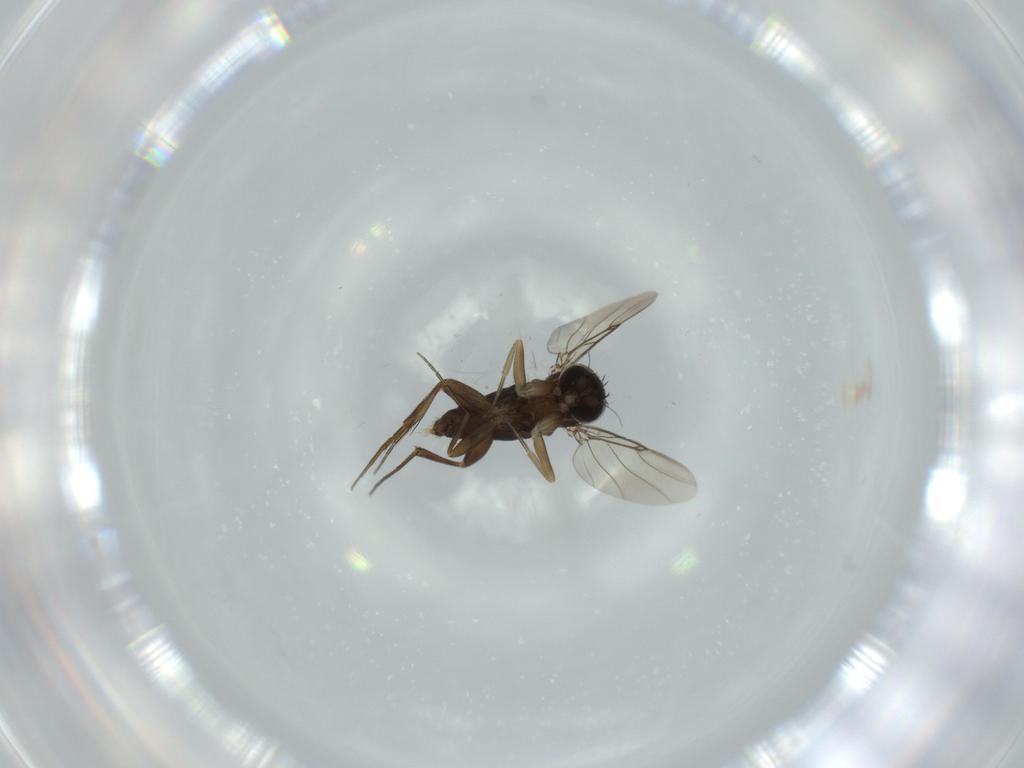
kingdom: Animalia
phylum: Arthropoda
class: Insecta
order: Diptera
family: Phoridae
